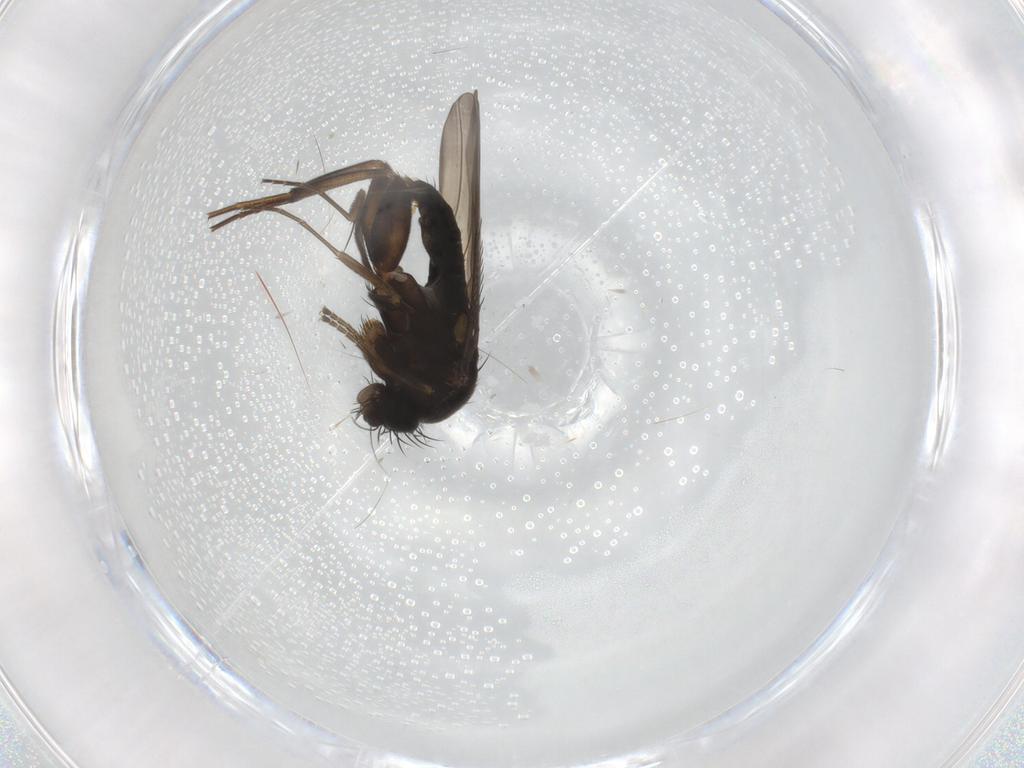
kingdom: Animalia
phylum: Arthropoda
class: Insecta
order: Diptera
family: Phoridae
